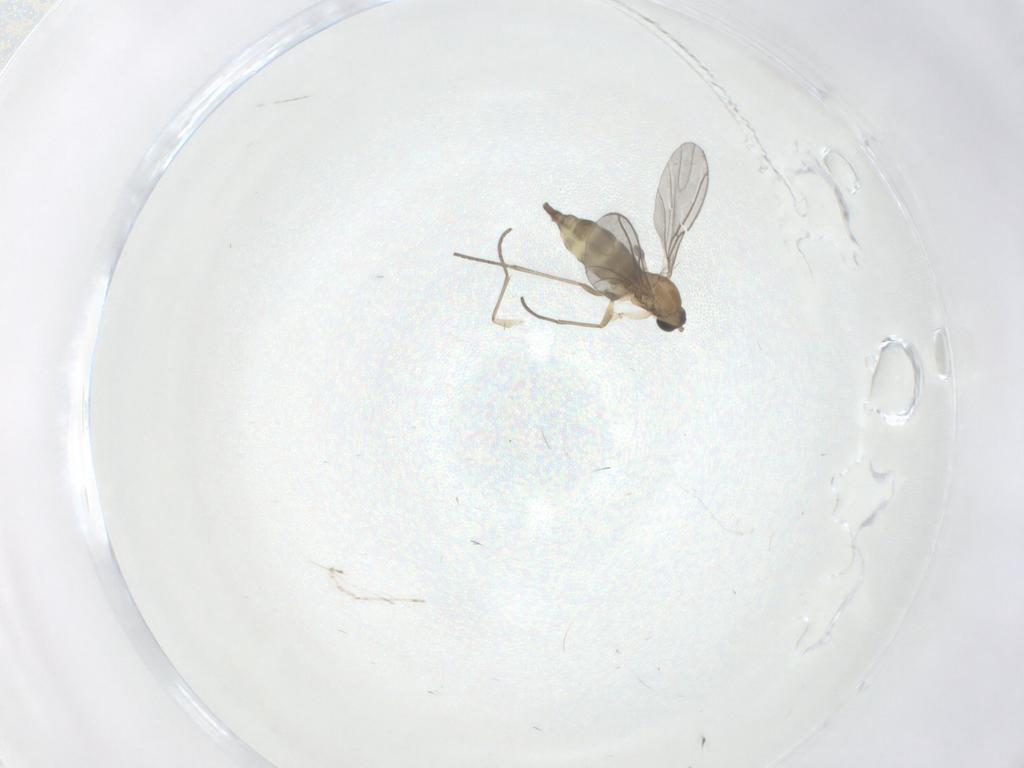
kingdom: Animalia
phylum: Arthropoda
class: Insecta
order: Diptera
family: Sciaridae
